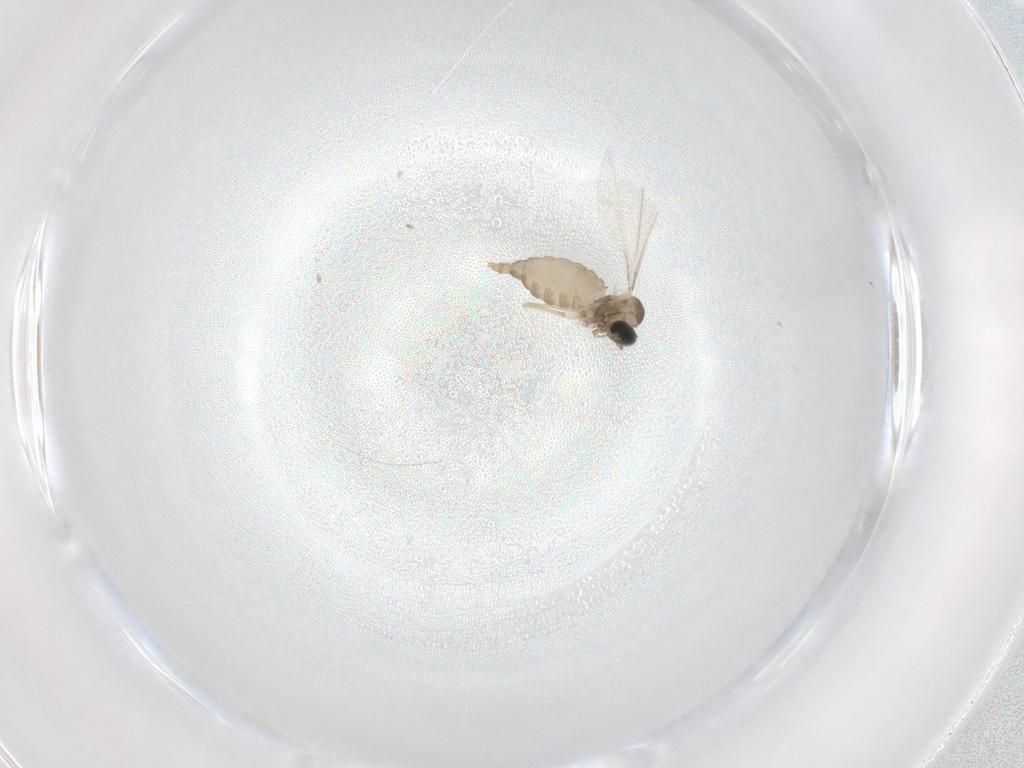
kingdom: Animalia
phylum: Arthropoda
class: Insecta
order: Diptera
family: Cecidomyiidae
